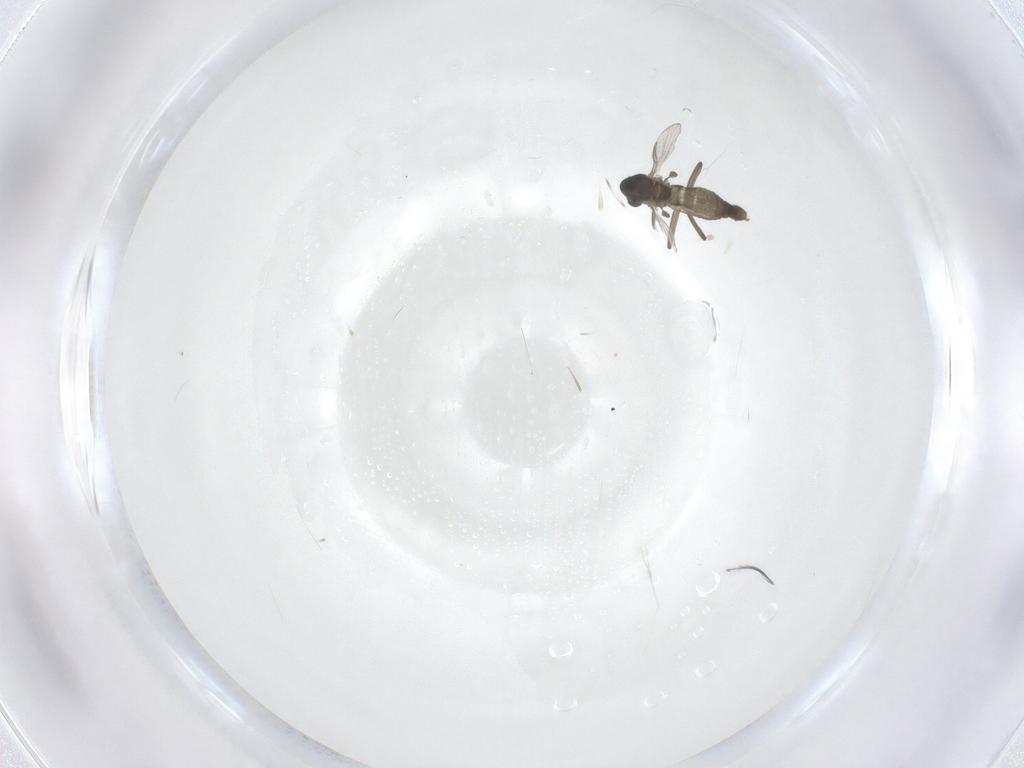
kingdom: Animalia
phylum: Arthropoda
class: Insecta
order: Diptera
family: Chironomidae
